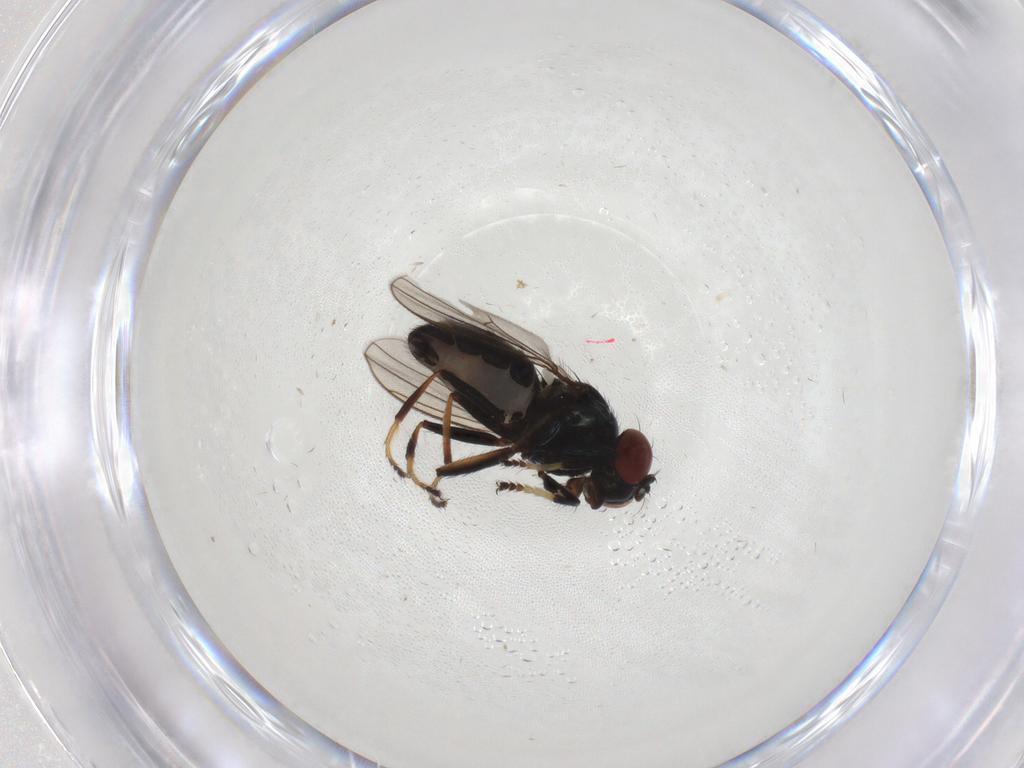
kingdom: Animalia
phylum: Arthropoda
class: Insecta
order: Diptera
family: Ephydridae
